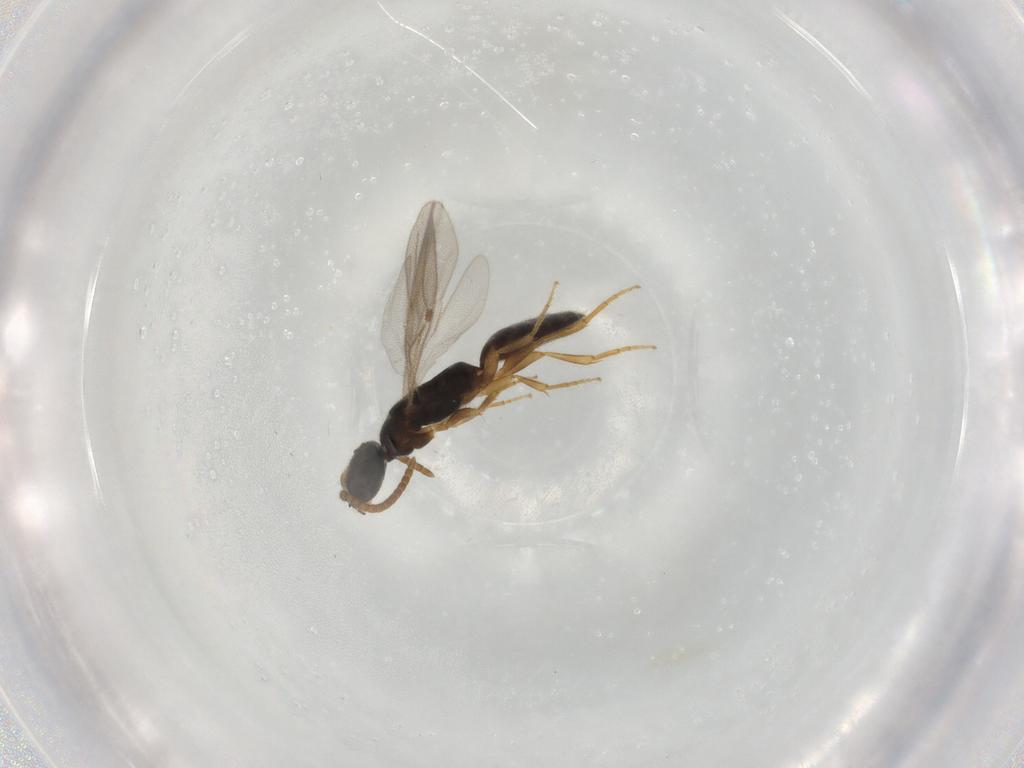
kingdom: Animalia
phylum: Arthropoda
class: Insecta
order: Hymenoptera
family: Bethylidae
